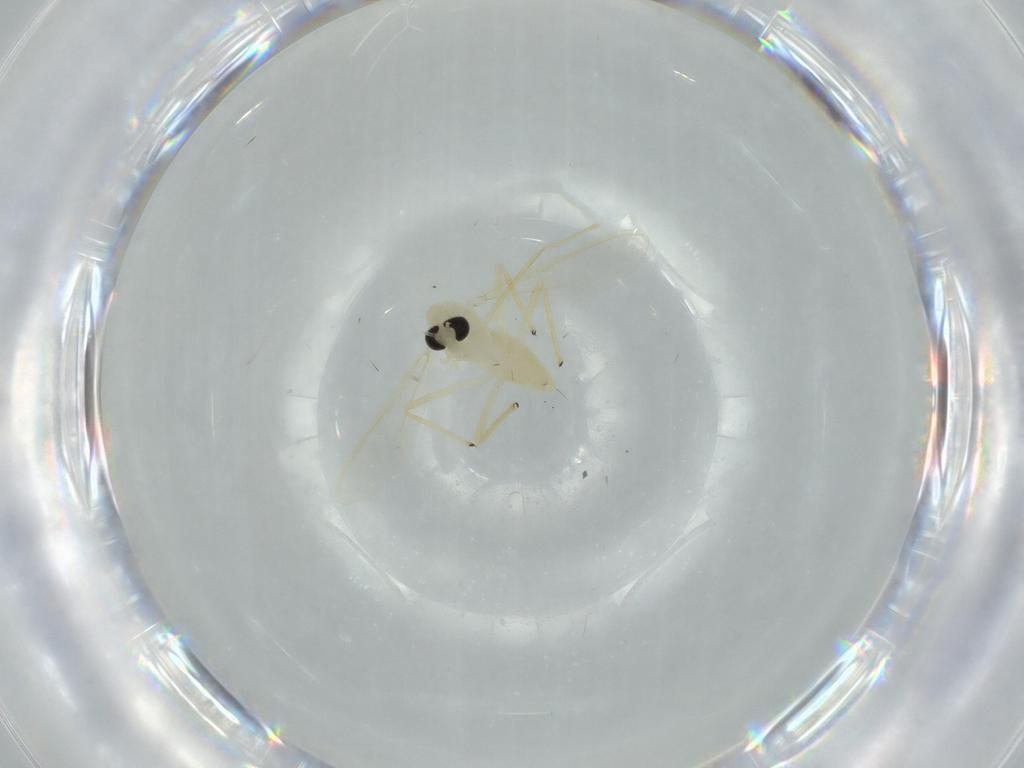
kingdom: Animalia
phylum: Arthropoda
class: Insecta
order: Diptera
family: Chironomidae
